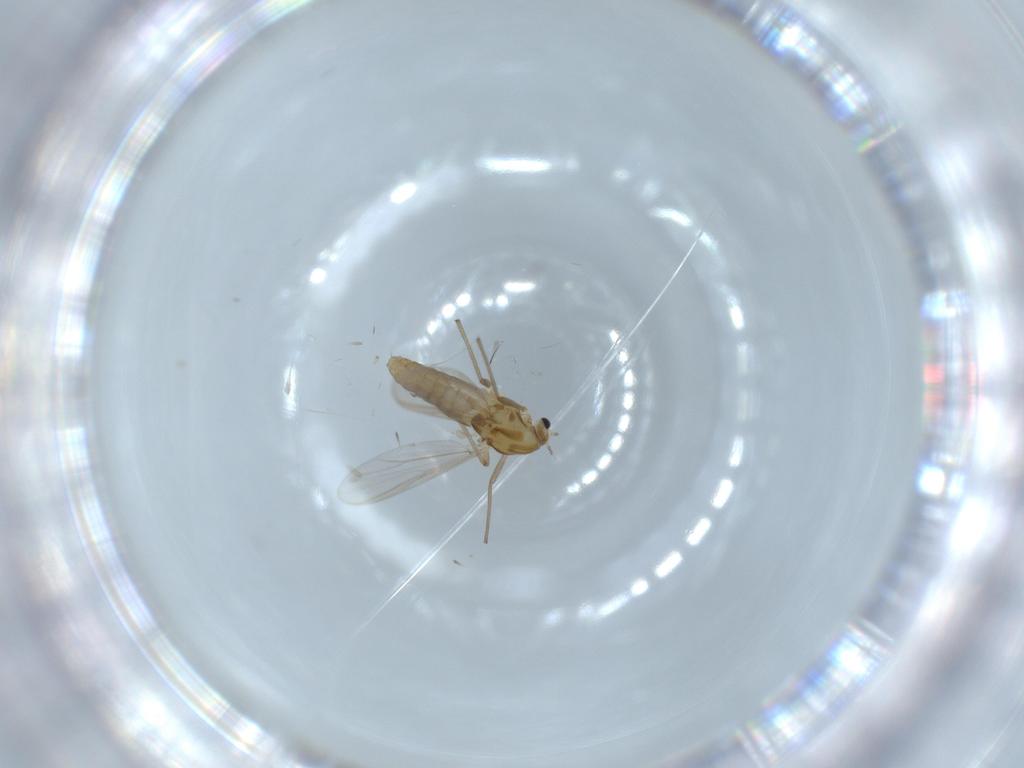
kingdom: Animalia
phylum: Arthropoda
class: Insecta
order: Diptera
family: Chironomidae
